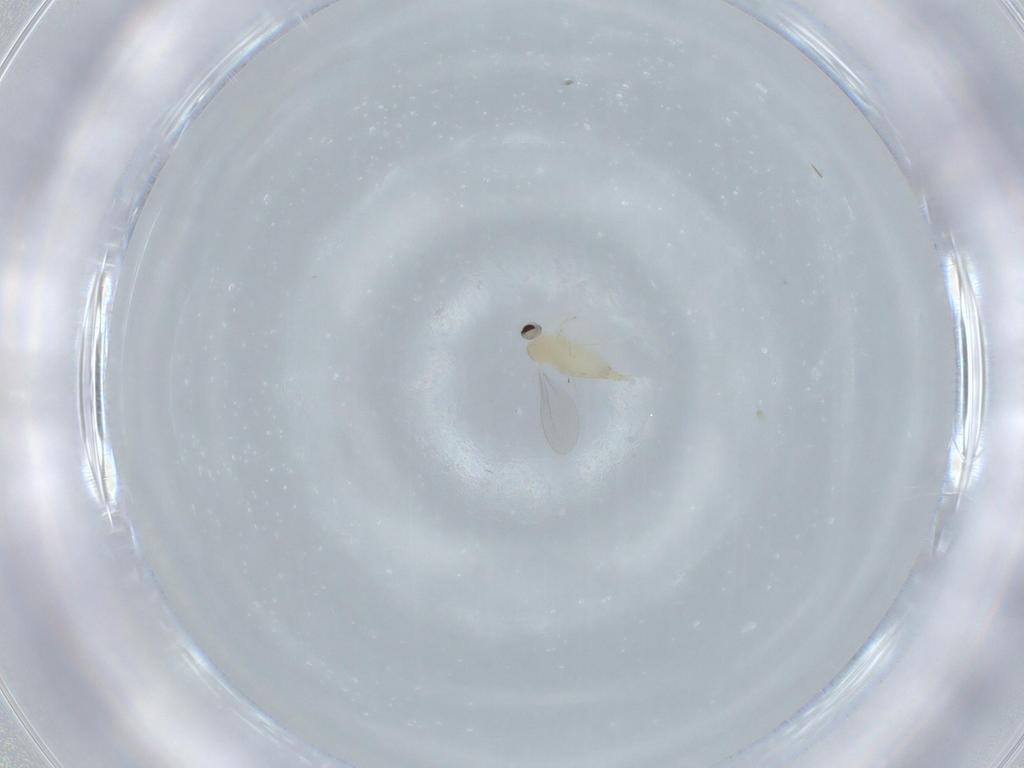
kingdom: Animalia
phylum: Arthropoda
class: Insecta
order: Diptera
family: Cecidomyiidae
